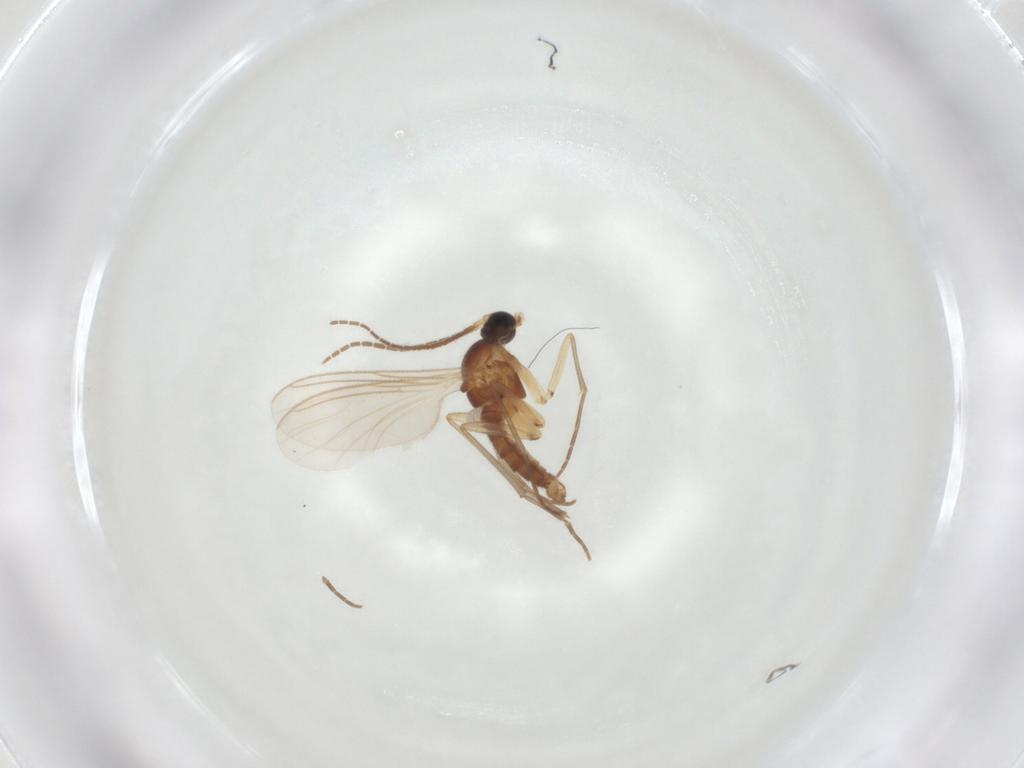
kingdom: Animalia
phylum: Arthropoda
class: Insecta
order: Diptera
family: Sciaridae
